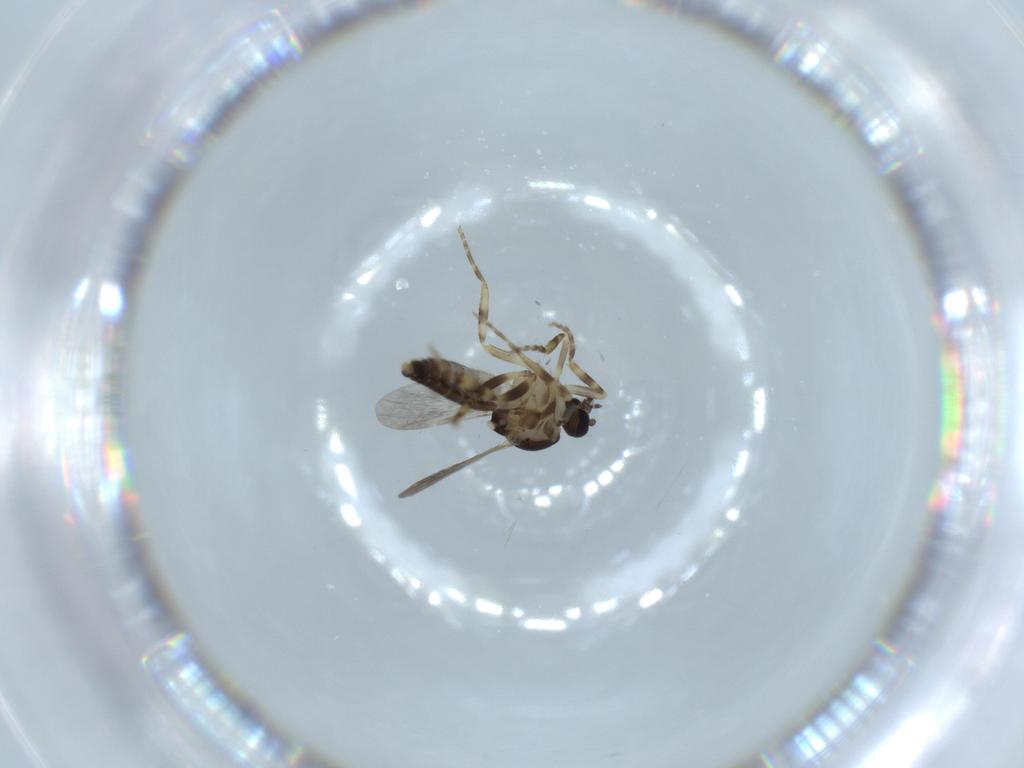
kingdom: Animalia
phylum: Arthropoda
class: Insecta
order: Diptera
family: Ceratopogonidae
